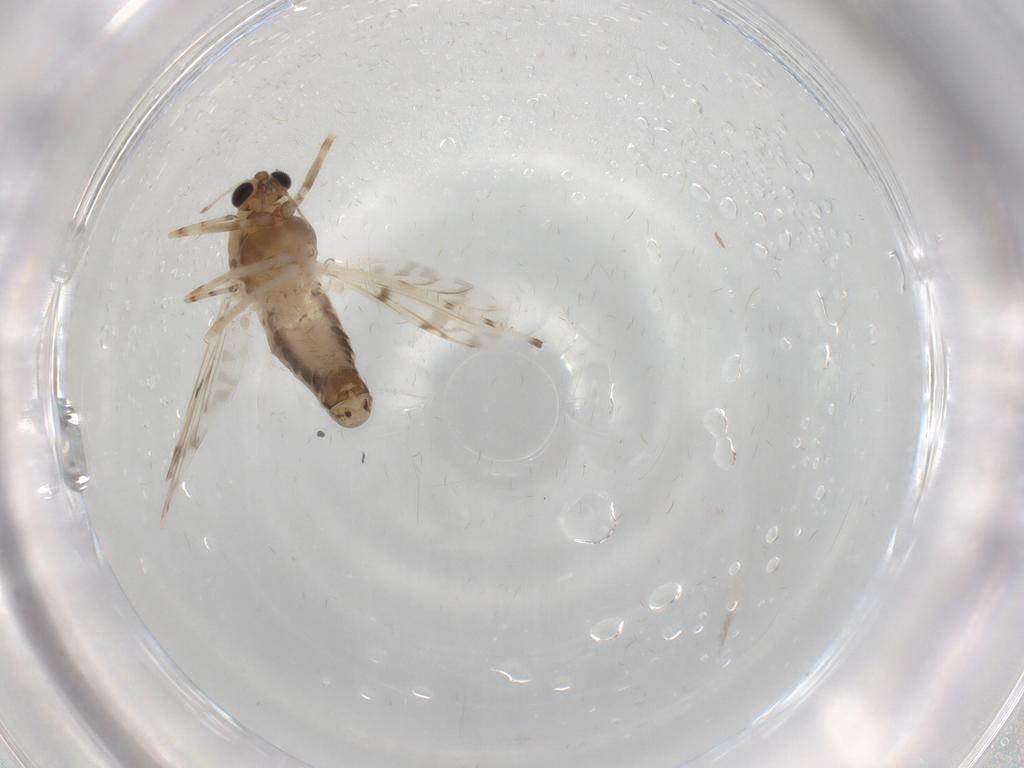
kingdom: Animalia
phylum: Arthropoda
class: Insecta
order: Diptera
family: Chironomidae
